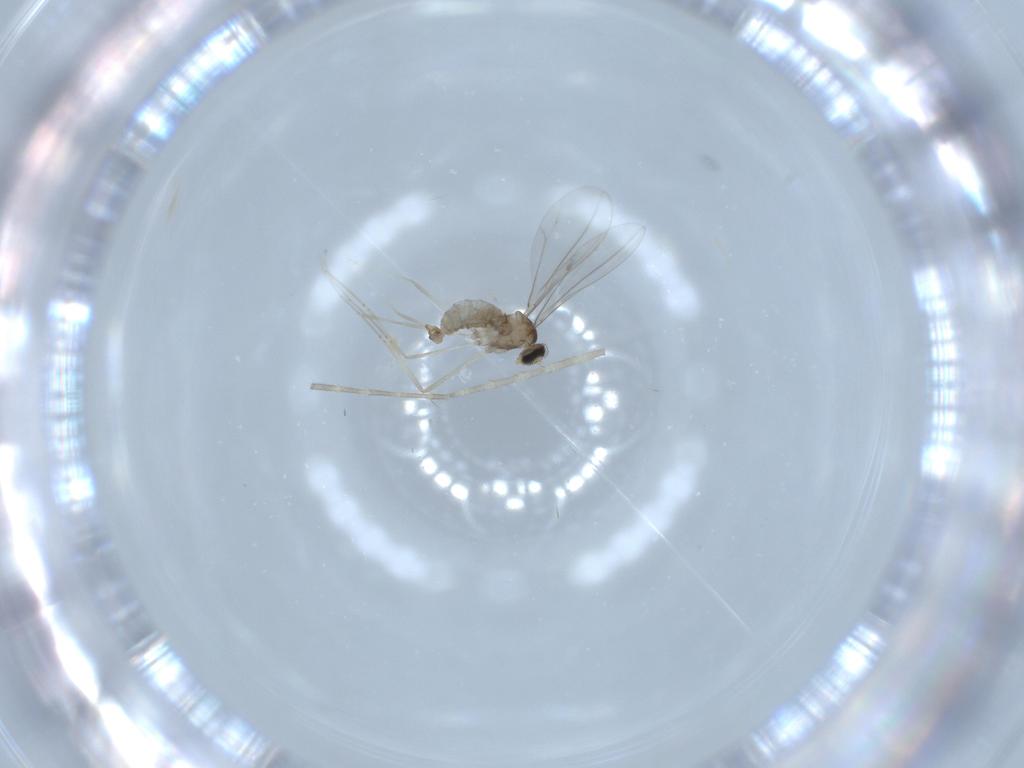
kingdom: Animalia
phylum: Arthropoda
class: Insecta
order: Diptera
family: Cecidomyiidae
